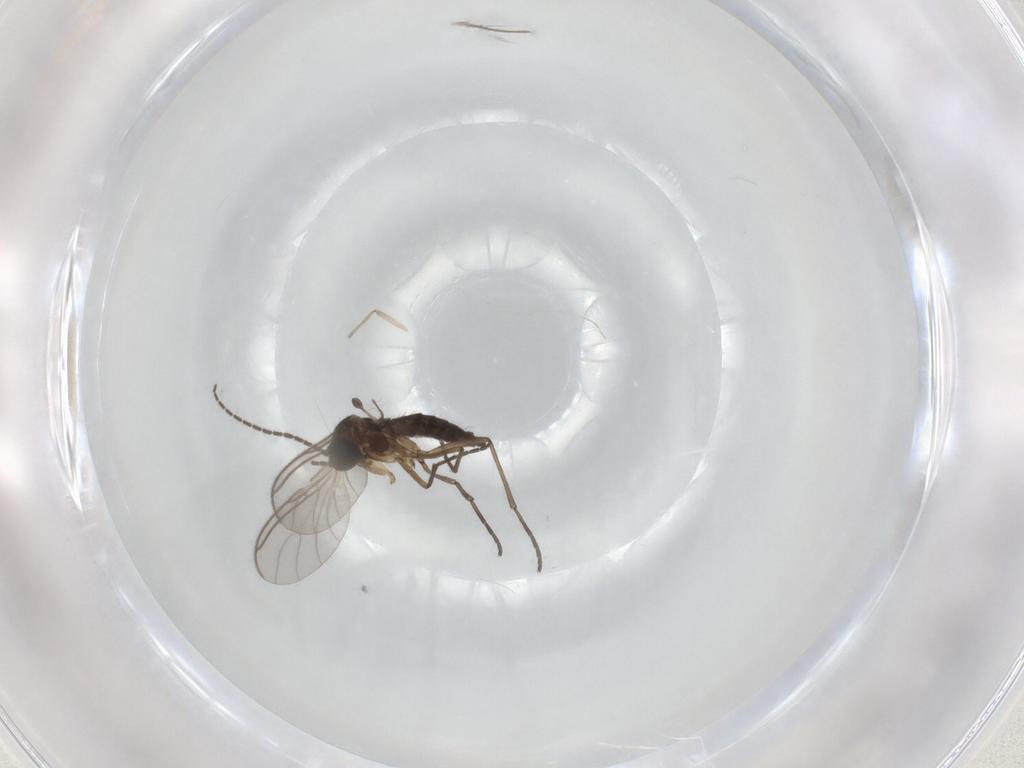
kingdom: Animalia
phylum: Arthropoda
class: Insecta
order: Diptera
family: Sciaridae
